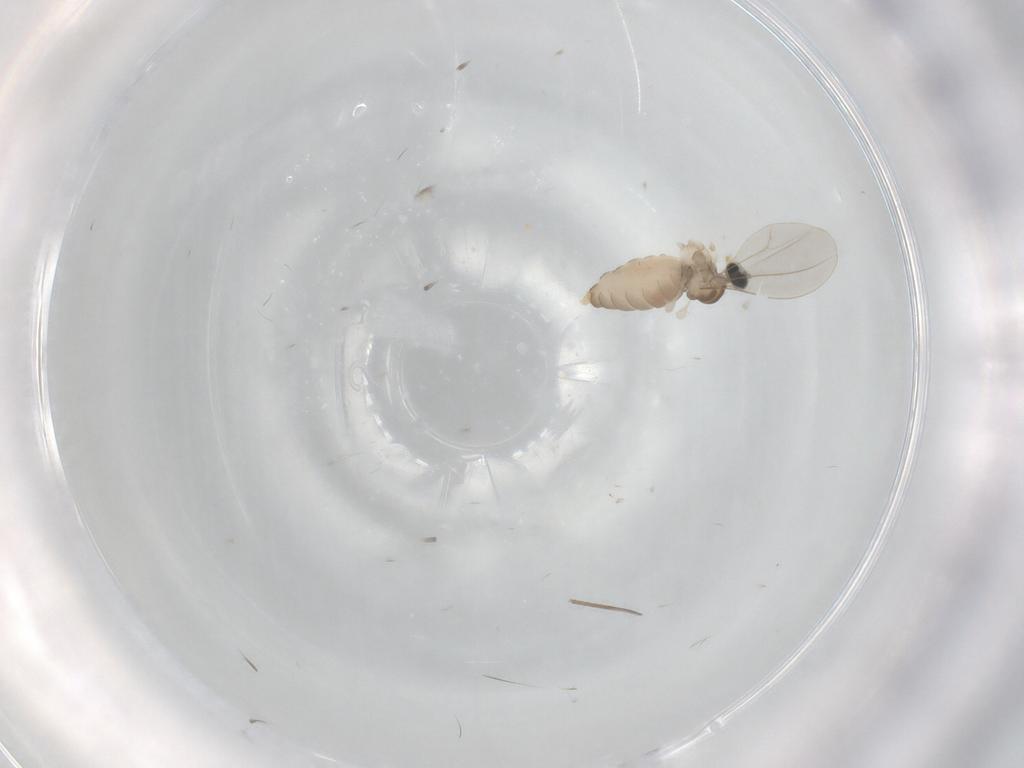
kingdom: Animalia
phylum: Arthropoda
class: Insecta
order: Diptera
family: Cecidomyiidae
